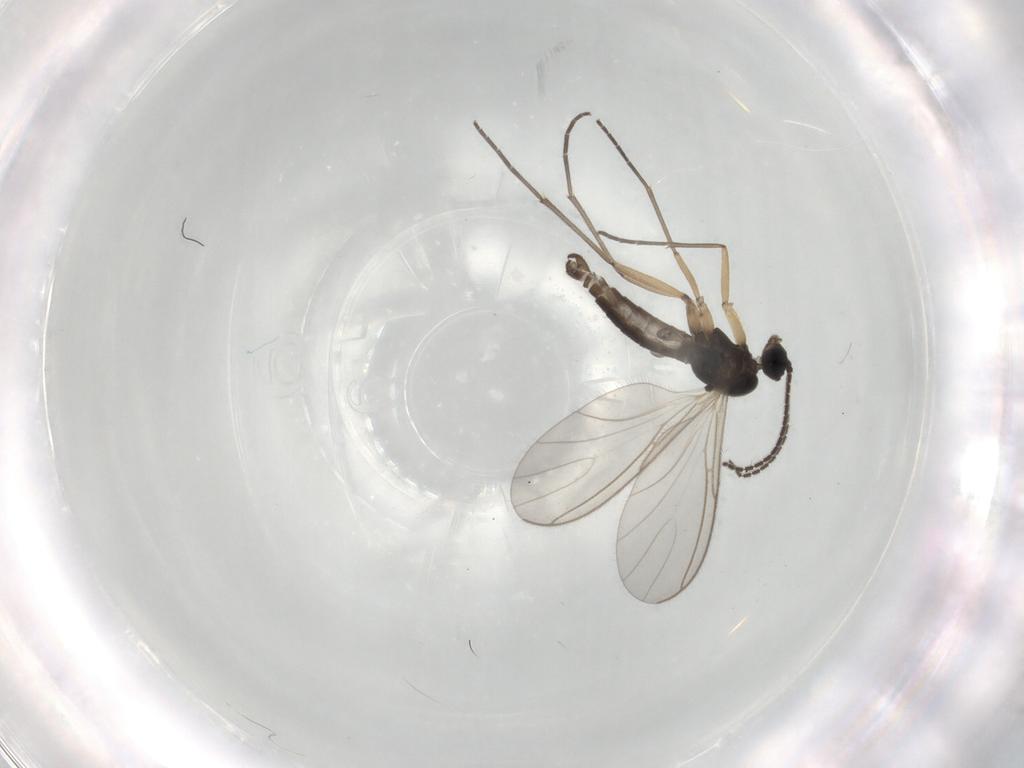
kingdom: Animalia
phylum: Arthropoda
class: Insecta
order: Diptera
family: Sciaridae
